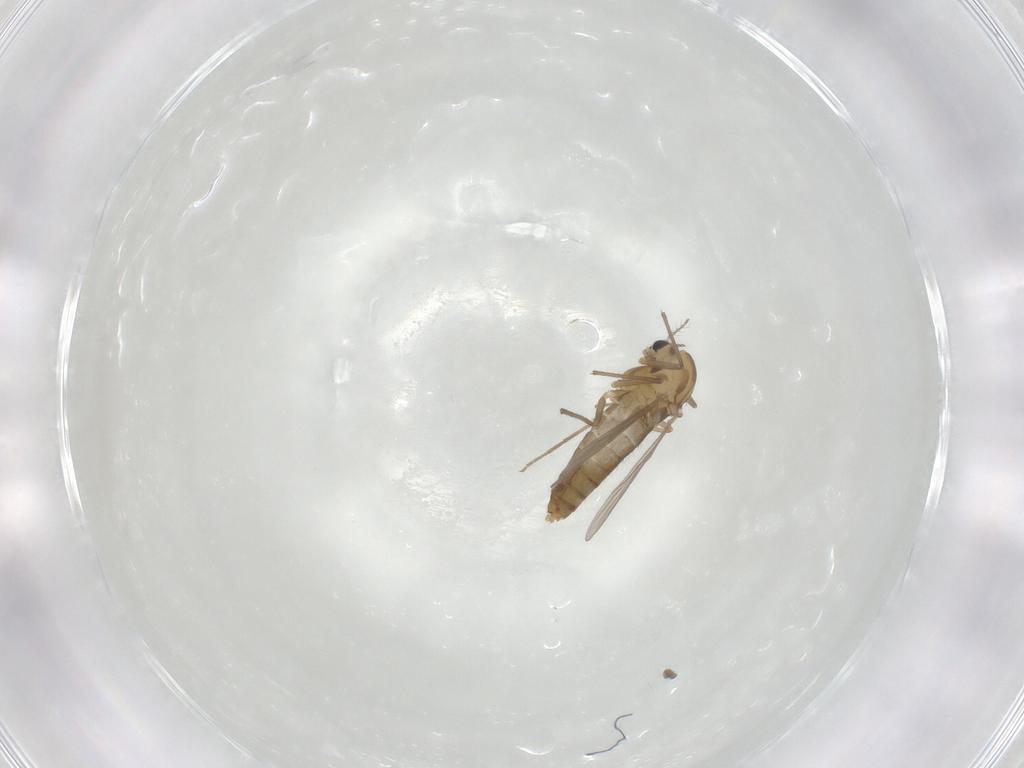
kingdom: Animalia
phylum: Arthropoda
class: Insecta
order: Diptera
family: Chironomidae
